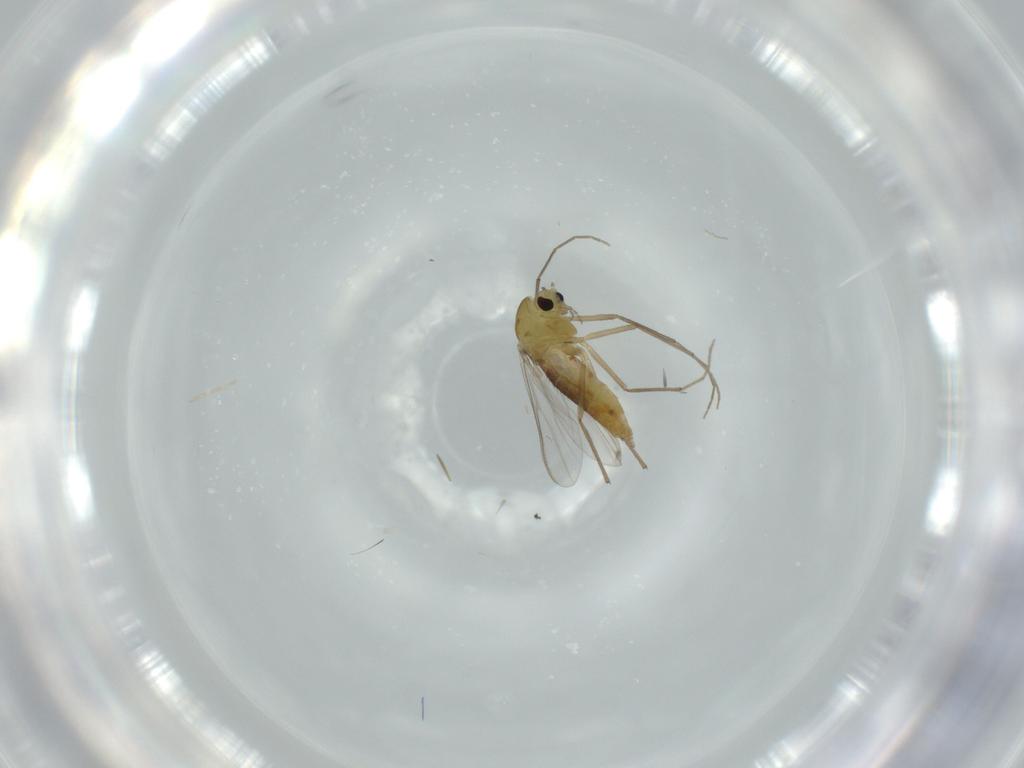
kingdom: Animalia
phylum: Arthropoda
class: Insecta
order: Diptera
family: Chironomidae
